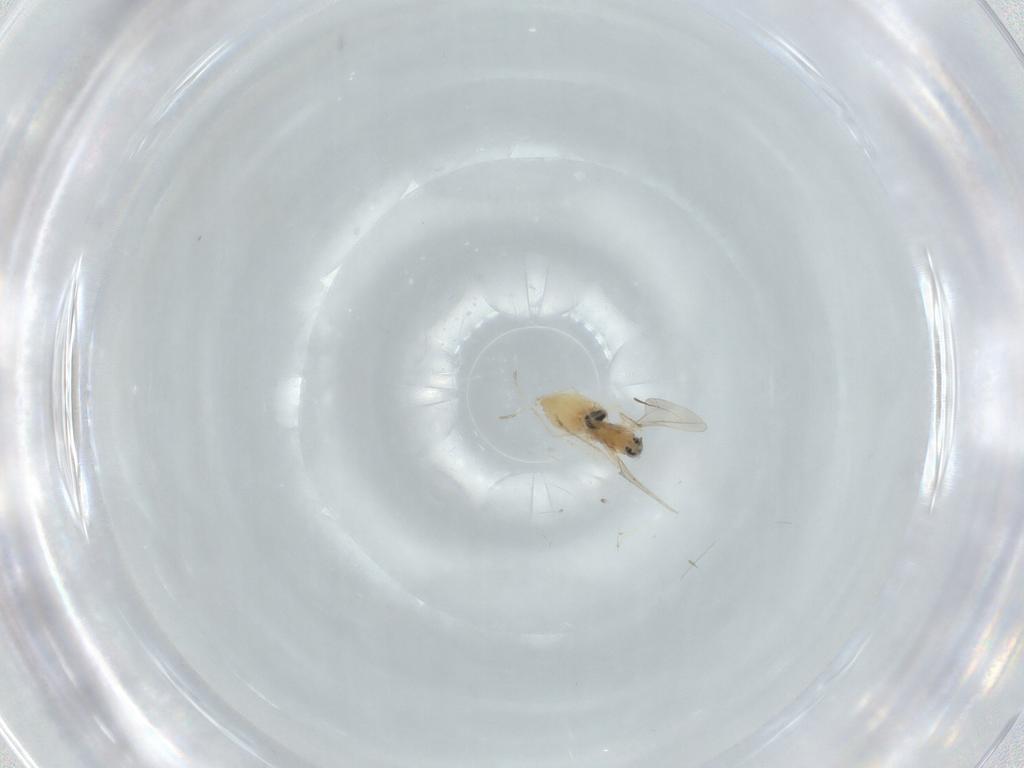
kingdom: Animalia
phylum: Arthropoda
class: Insecta
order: Diptera
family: Cecidomyiidae
